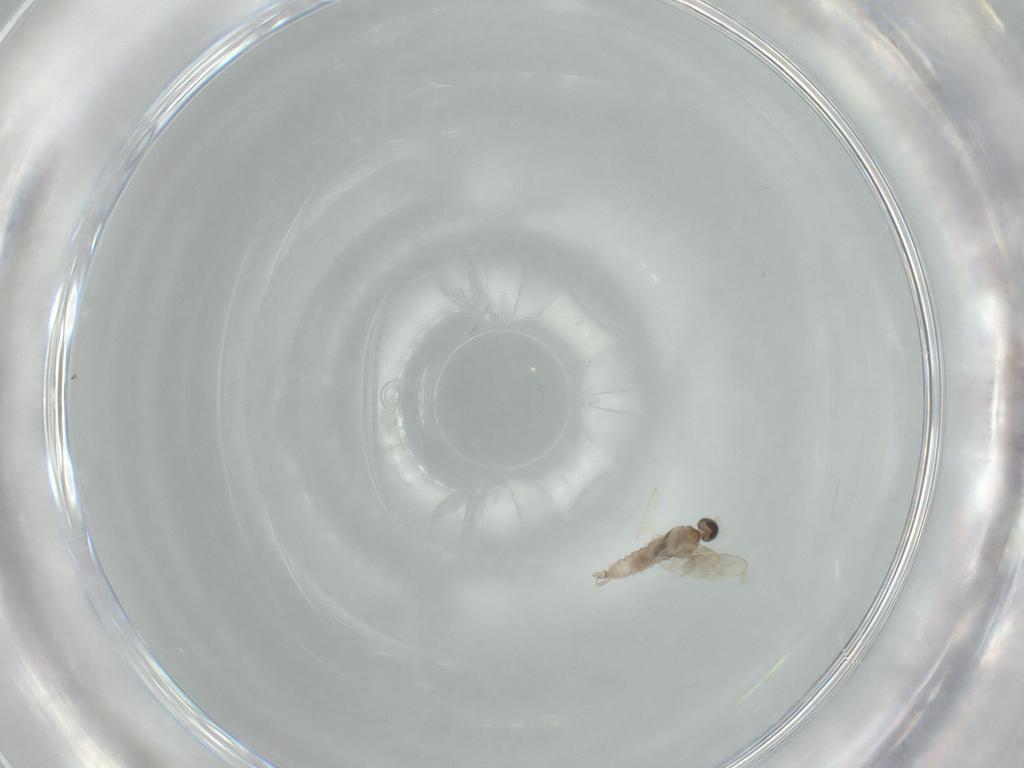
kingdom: Animalia
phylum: Arthropoda
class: Insecta
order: Diptera
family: Cecidomyiidae
